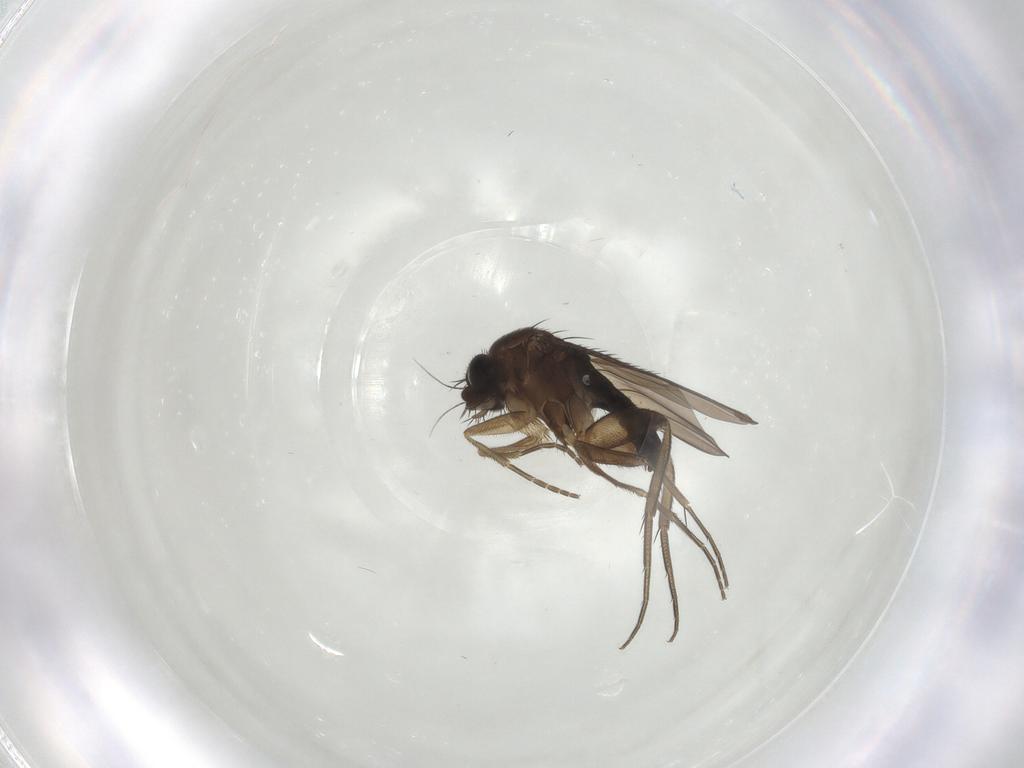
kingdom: Animalia
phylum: Arthropoda
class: Insecta
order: Diptera
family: Phoridae
